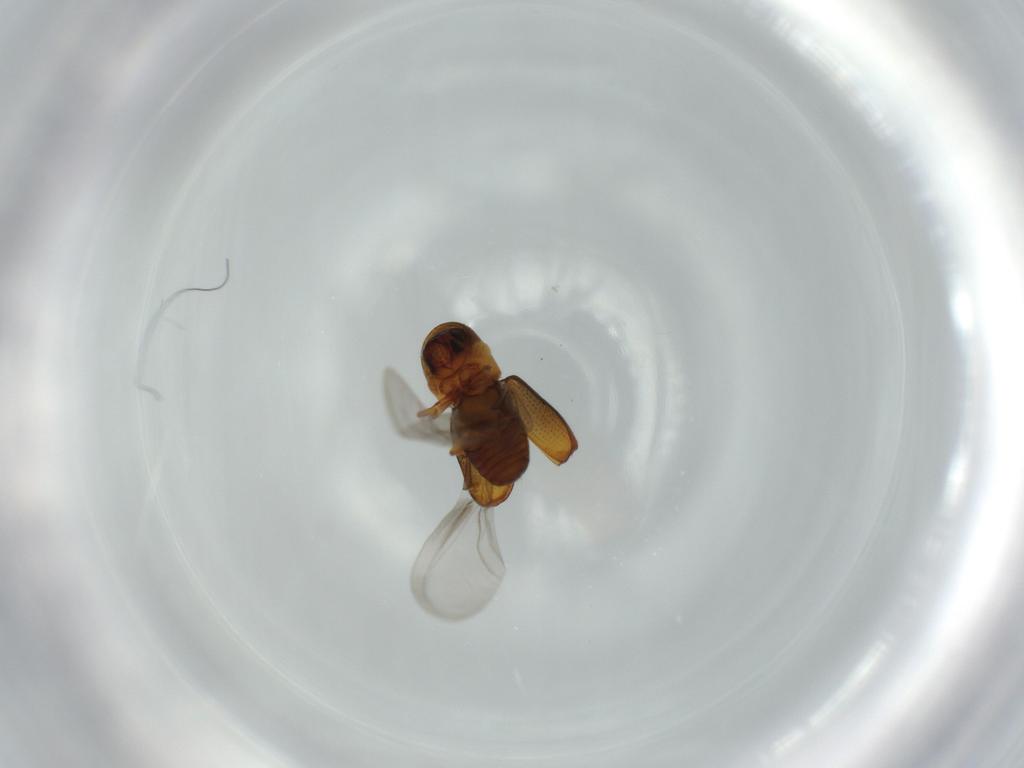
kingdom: Animalia
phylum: Arthropoda
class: Insecta
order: Coleoptera
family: Curculionidae
